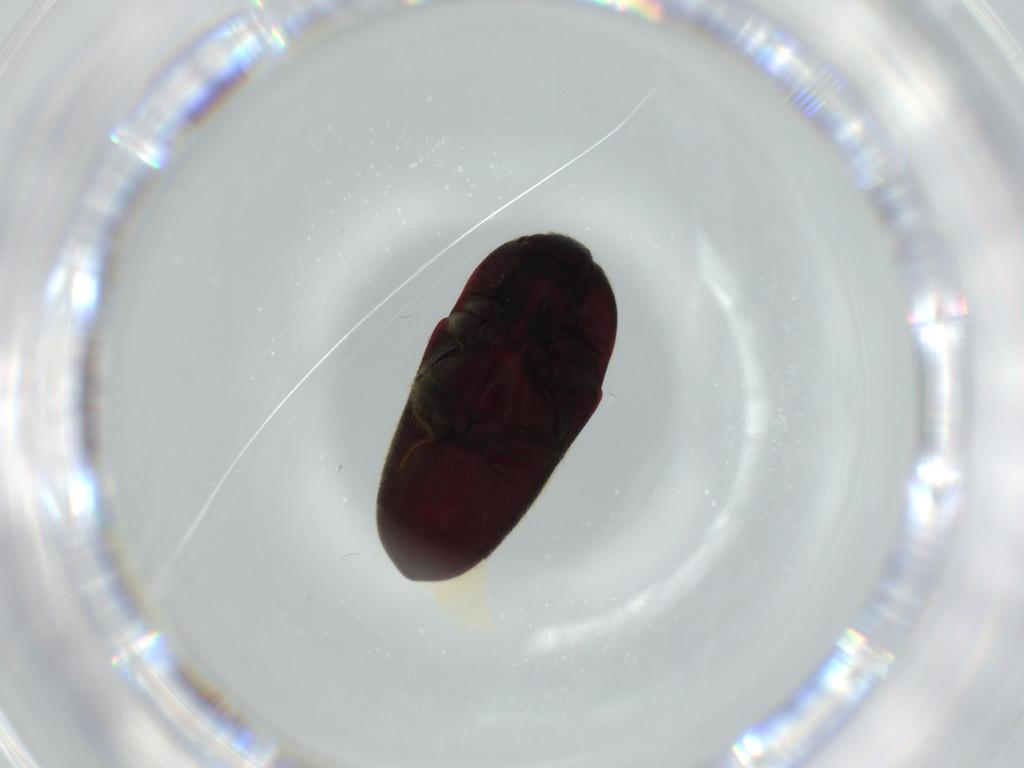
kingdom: Animalia
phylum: Arthropoda
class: Insecta
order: Coleoptera
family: Throscidae
